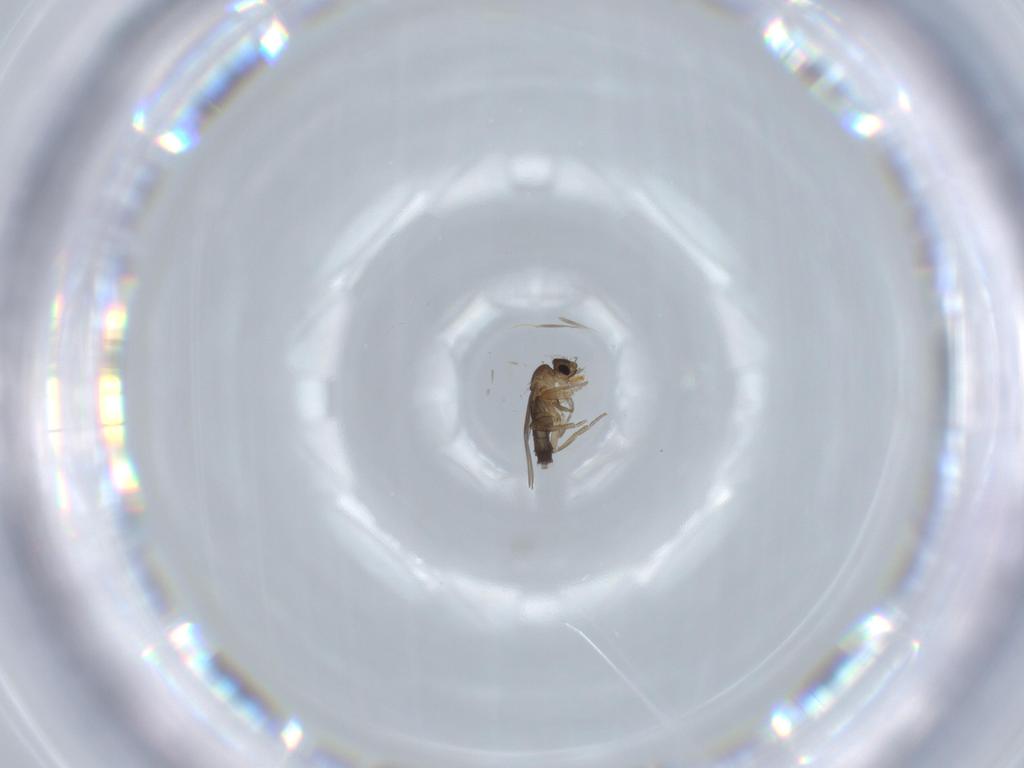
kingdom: Animalia
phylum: Arthropoda
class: Insecta
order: Diptera
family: Phoridae
